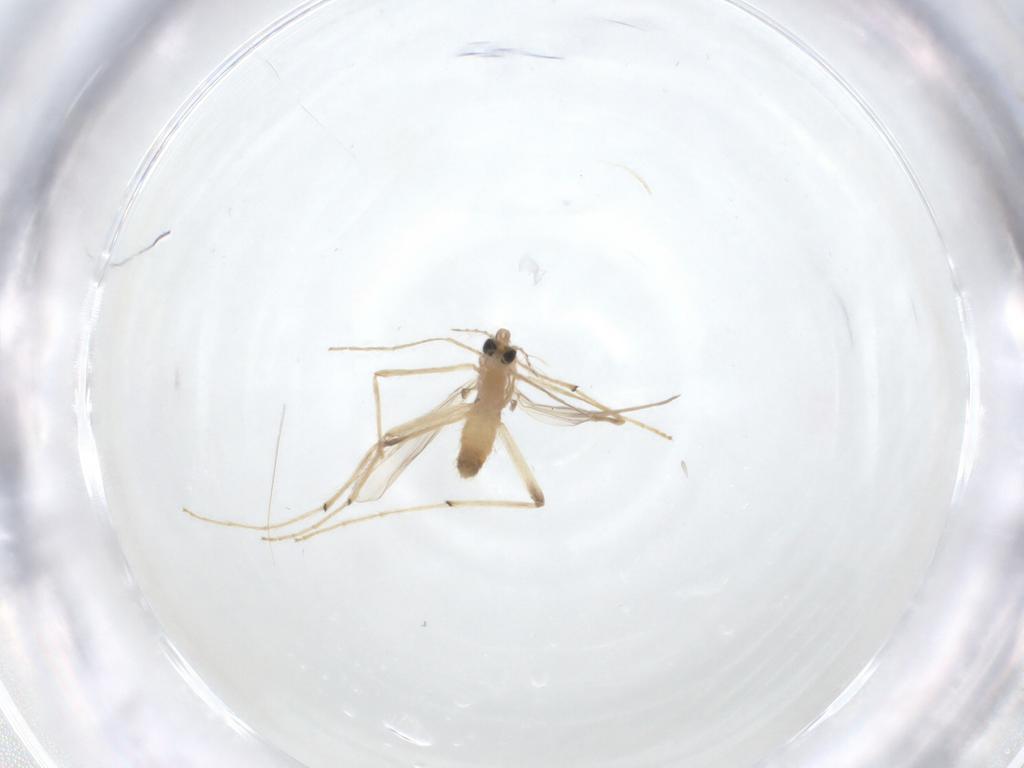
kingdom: Animalia
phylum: Arthropoda
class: Insecta
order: Diptera
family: Chironomidae
